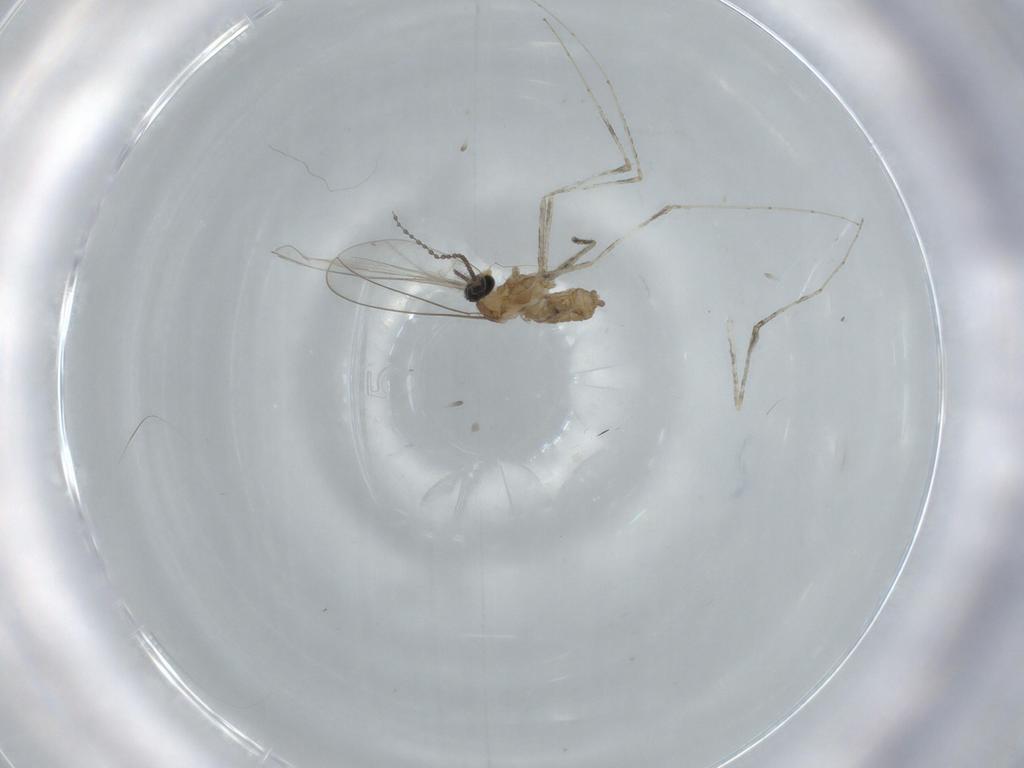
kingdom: Animalia
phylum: Arthropoda
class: Insecta
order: Diptera
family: Cecidomyiidae
